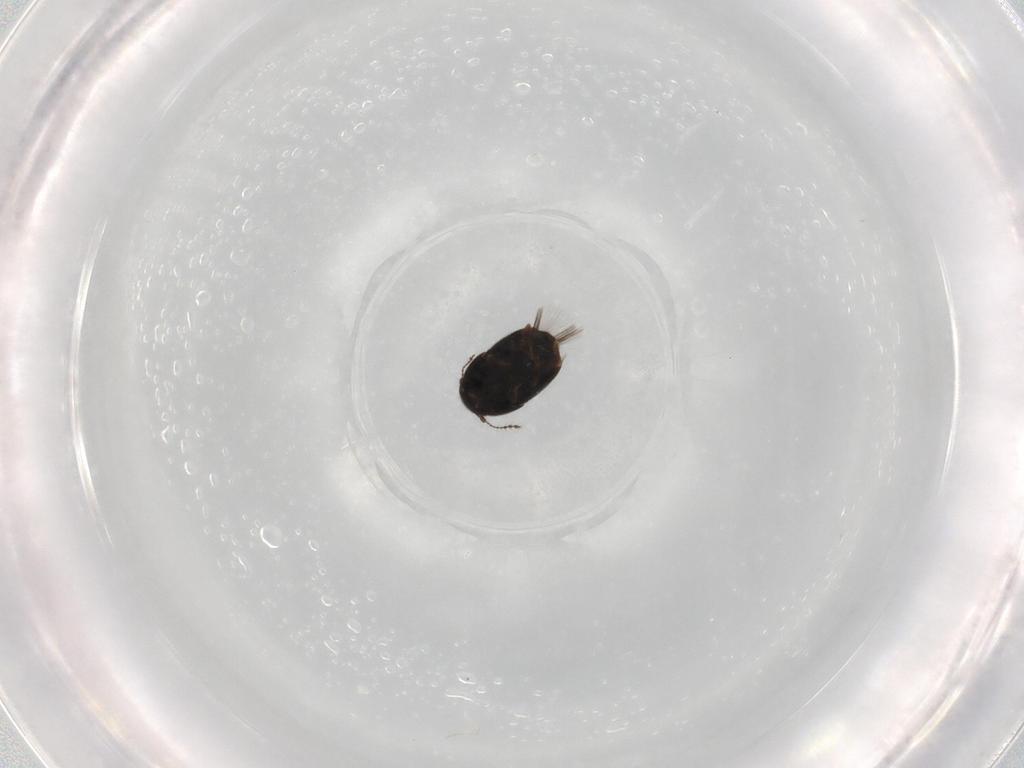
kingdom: Animalia
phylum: Arthropoda
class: Insecta
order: Coleoptera
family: Ptiliidae
